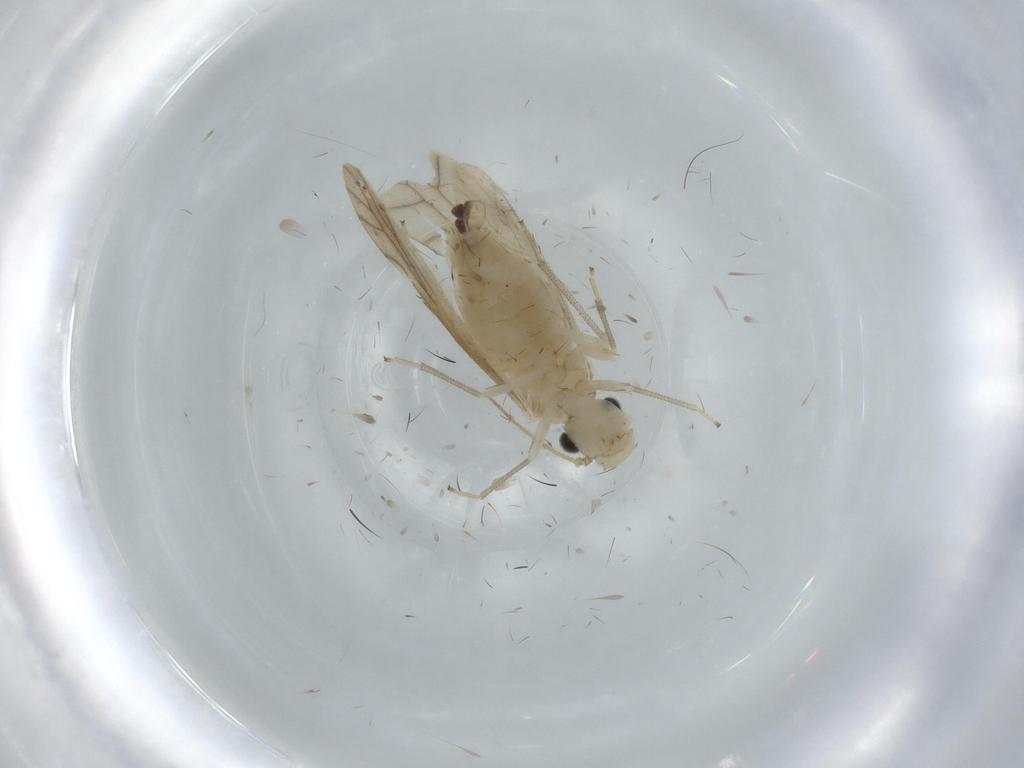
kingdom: Animalia
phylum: Arthropoda
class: Insecta
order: Psocodea
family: Caeciliusidae
